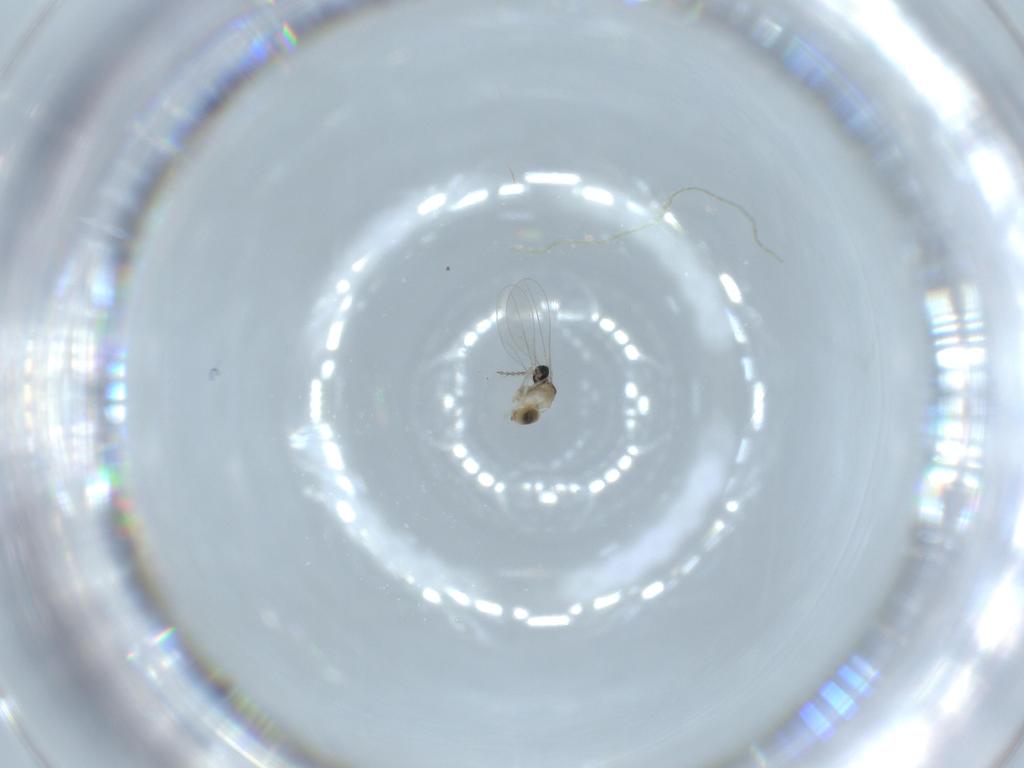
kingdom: Animalia
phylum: Arthropoda
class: Insecta
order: Diptera
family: Cecidomyiidae
